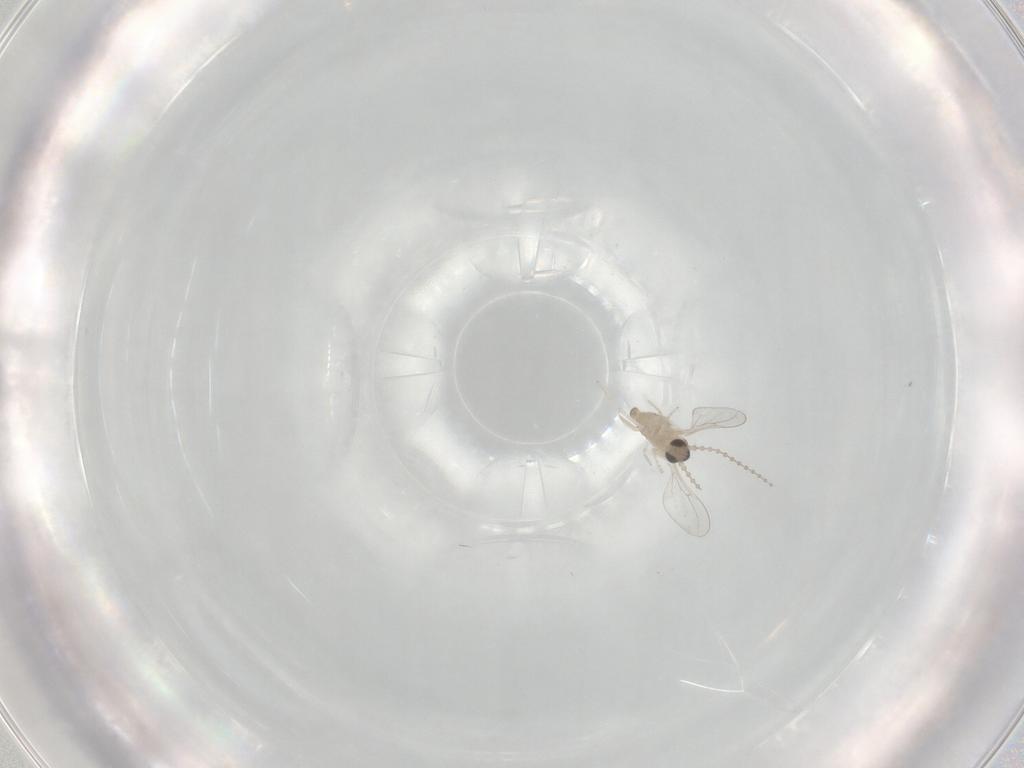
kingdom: Animalia
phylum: Arthropoda
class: Insecta
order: Diptera
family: Cecidomyiidae
